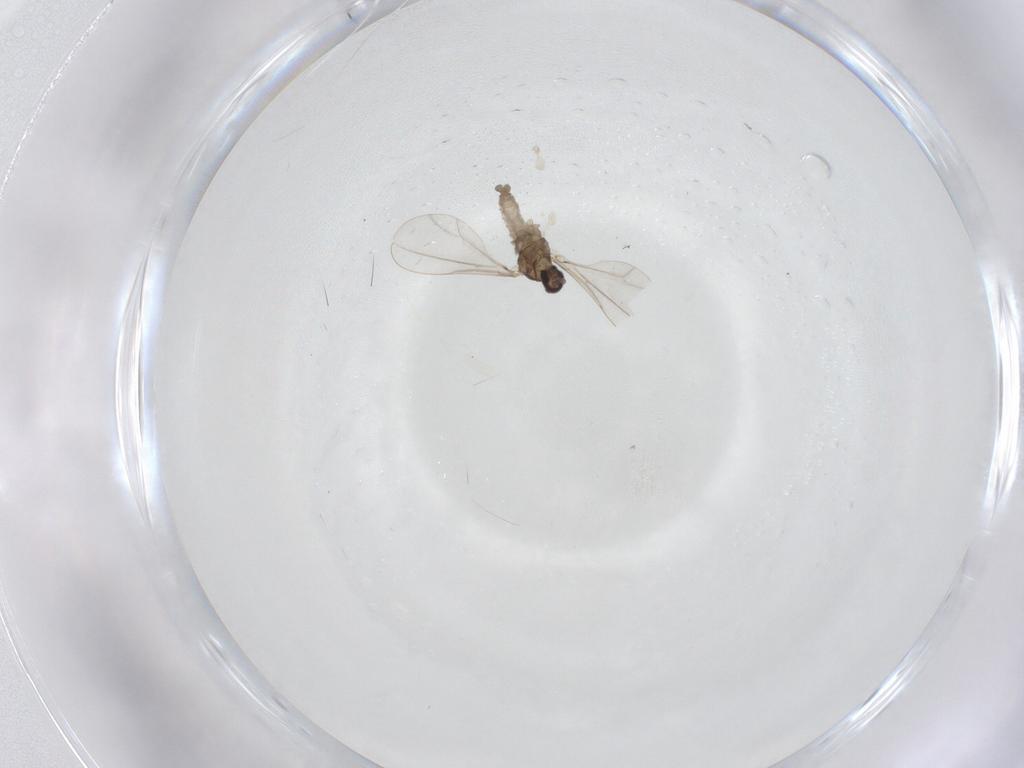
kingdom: Animalia
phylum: Arthropoda
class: Insecta
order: Diptera
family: Cecidomyiidae
